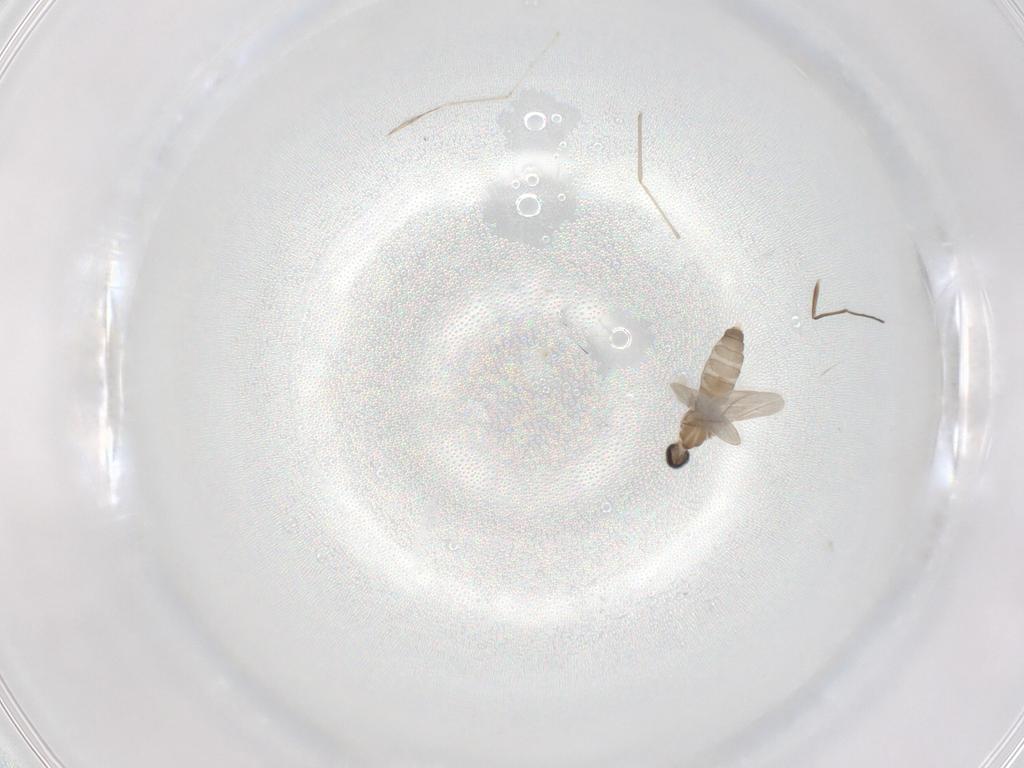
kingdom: Animalia
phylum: Arthropoda
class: Insecta
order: Diptera
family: Cecidomyiidae
